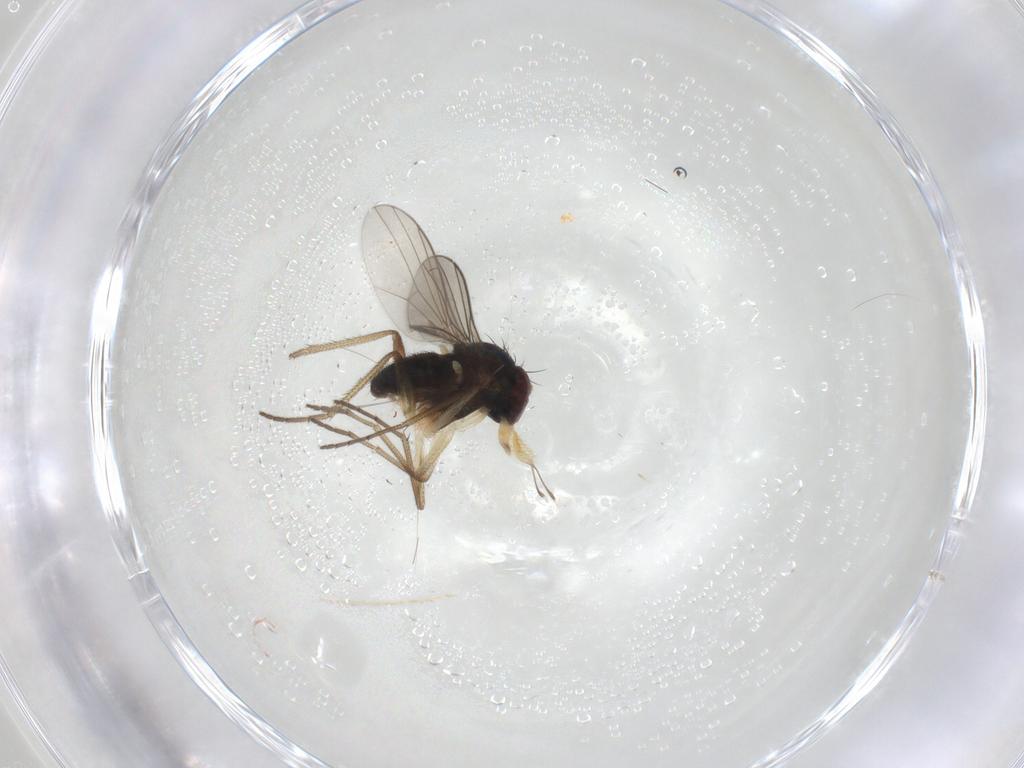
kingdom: Animalia
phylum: Arthropoda
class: Insecta
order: Diptera
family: Dolichopodidae
